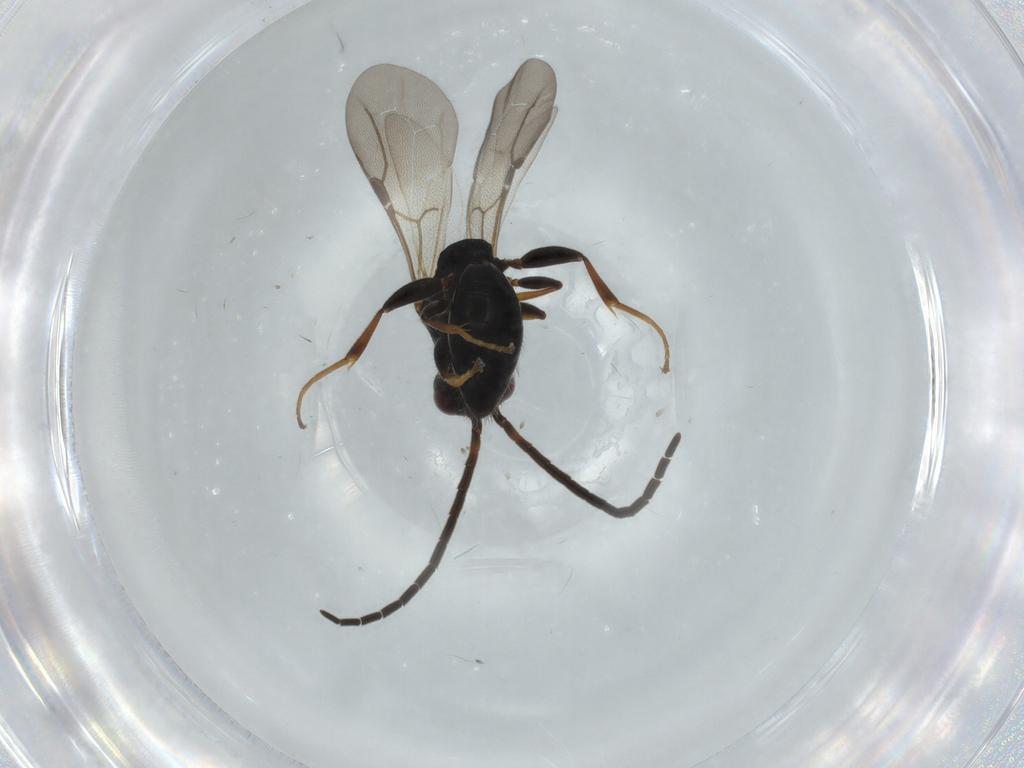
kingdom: Animalia
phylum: Arthropoda
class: Insecta
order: Hymenoptera
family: Bethylidae
